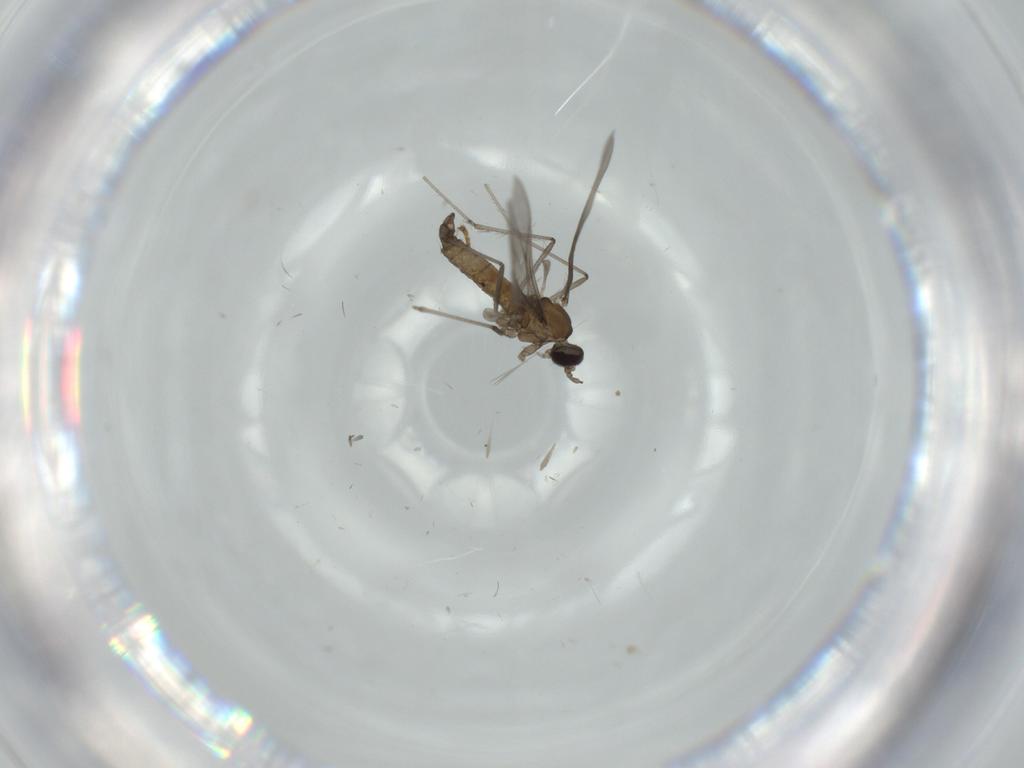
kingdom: Animalia
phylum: Arthropoda
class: Insecta
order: Diptera
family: Cecidomyiidae
